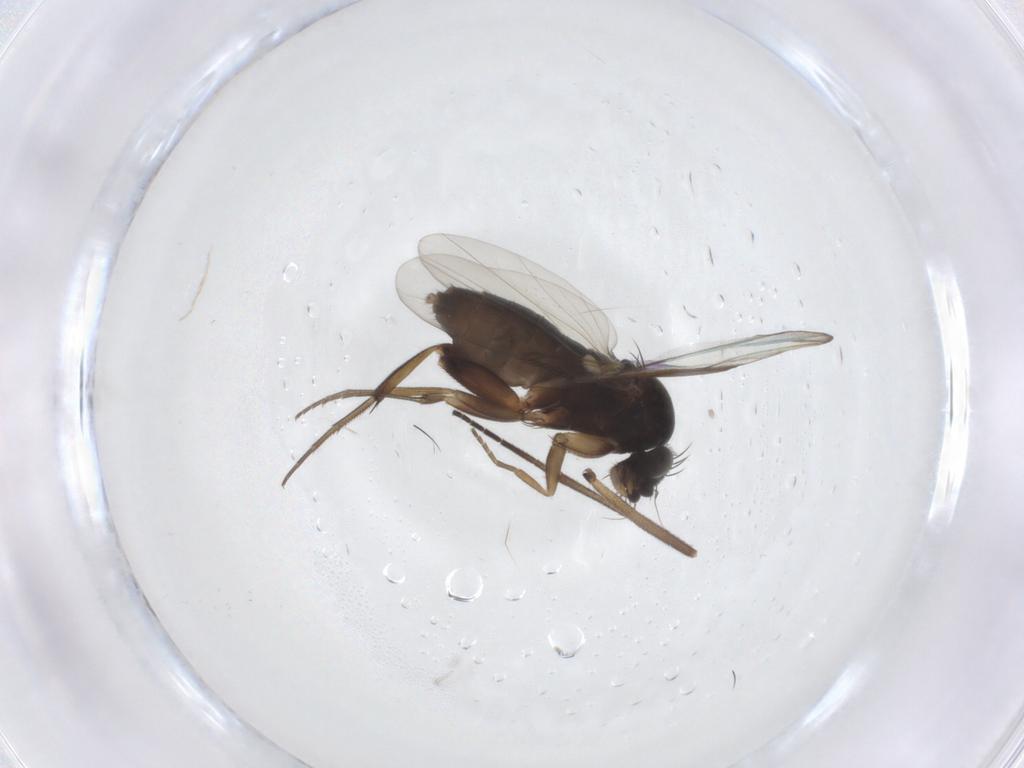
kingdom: Animalia
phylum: Arthropoda
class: Insecta
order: Diptera
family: Phoridae
